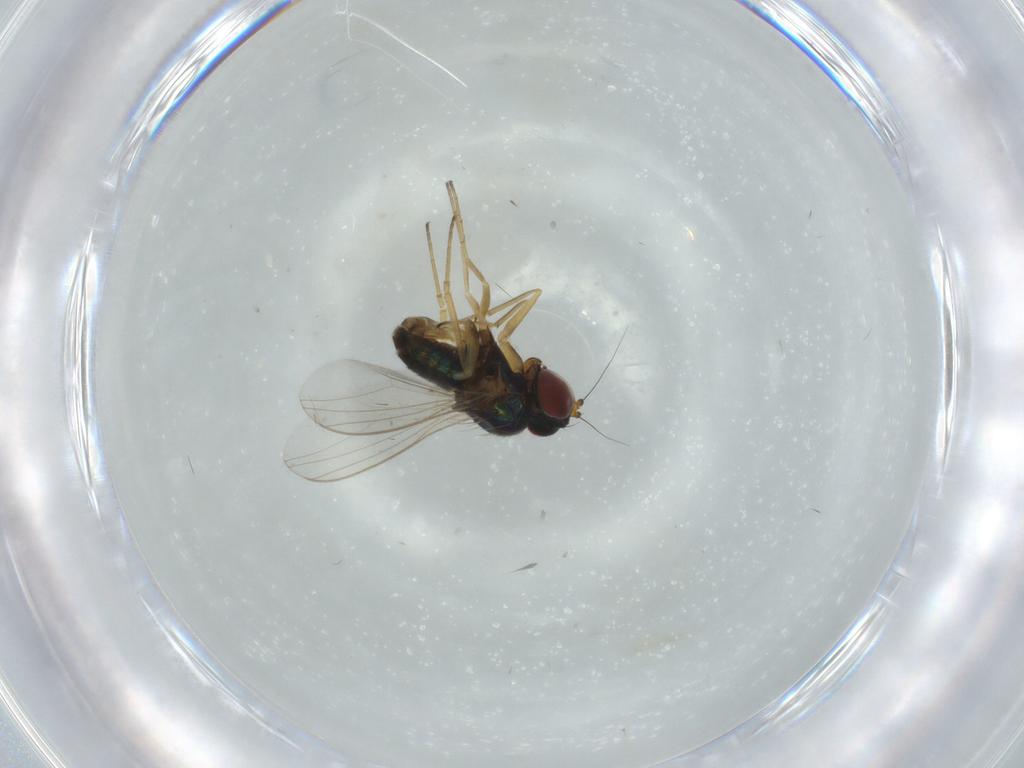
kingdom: Animalia
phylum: Arthropoda
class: Insecta
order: Diptera
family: Dolichopodidae
